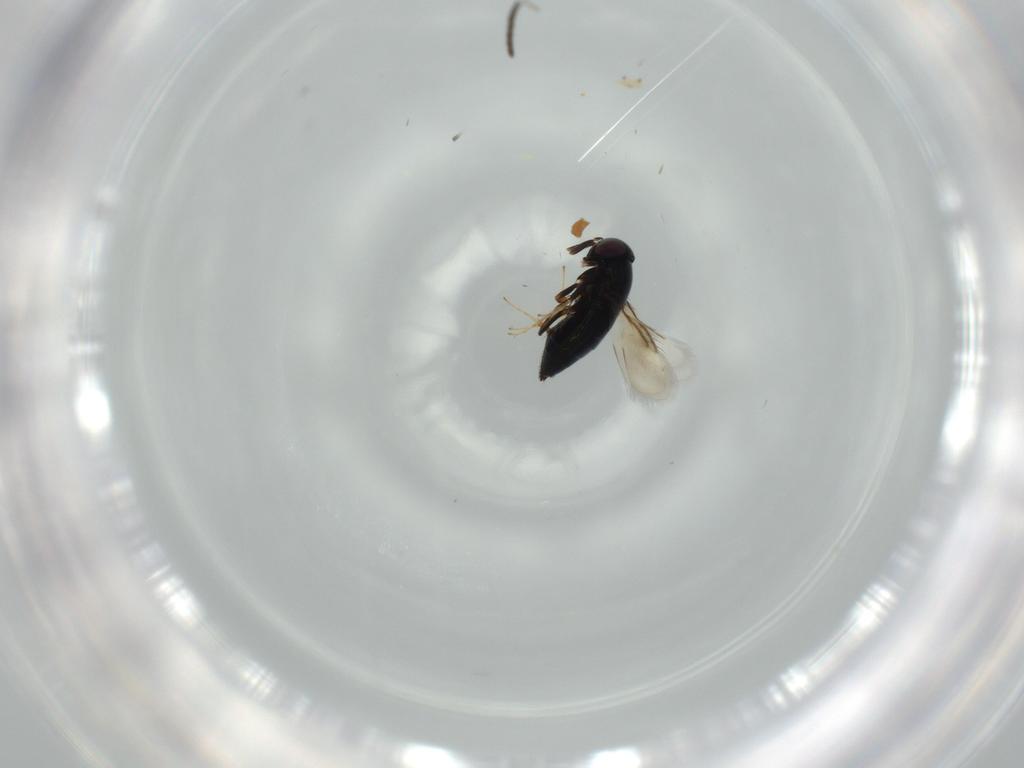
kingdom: Animalia
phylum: Arthropoda
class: Insecta
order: Hymenoptera
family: Signiphoridae
